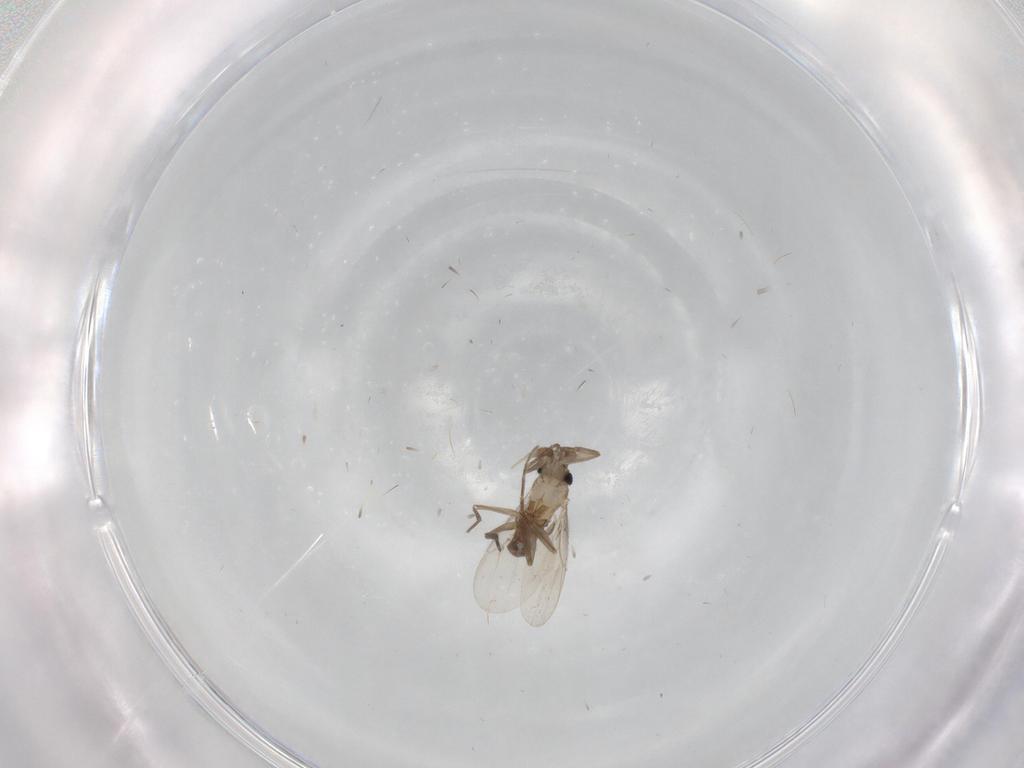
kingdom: Animalia
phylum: Arthropoda
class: Insecta
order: Diptera
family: Phoridae
